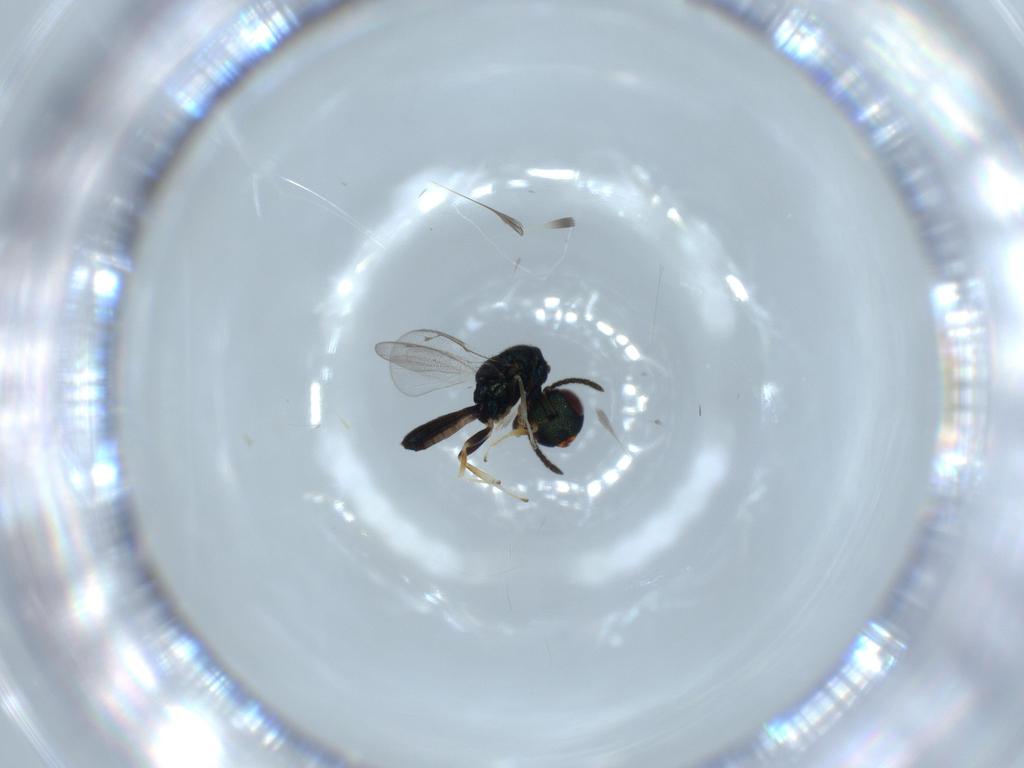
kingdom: Animalia
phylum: Arthropoda
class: Insecta
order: Hymenoptera
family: Pteromalidae
